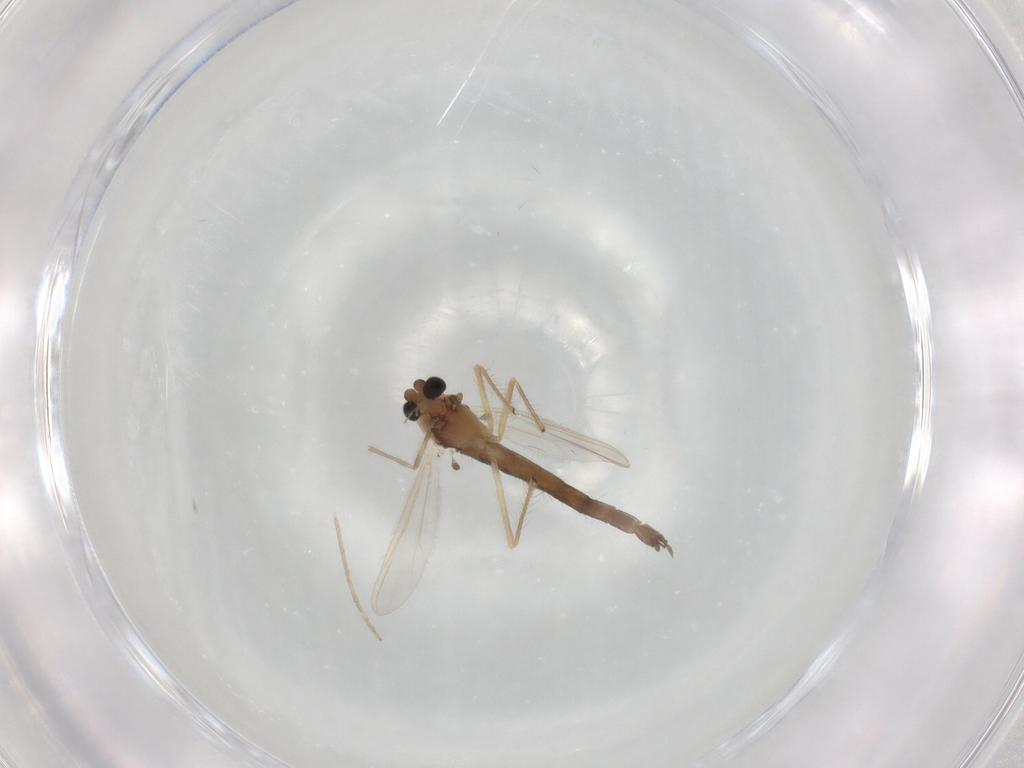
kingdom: Animalia
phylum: Arthropoda
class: Insecta
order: Diptera
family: Chironomidae
